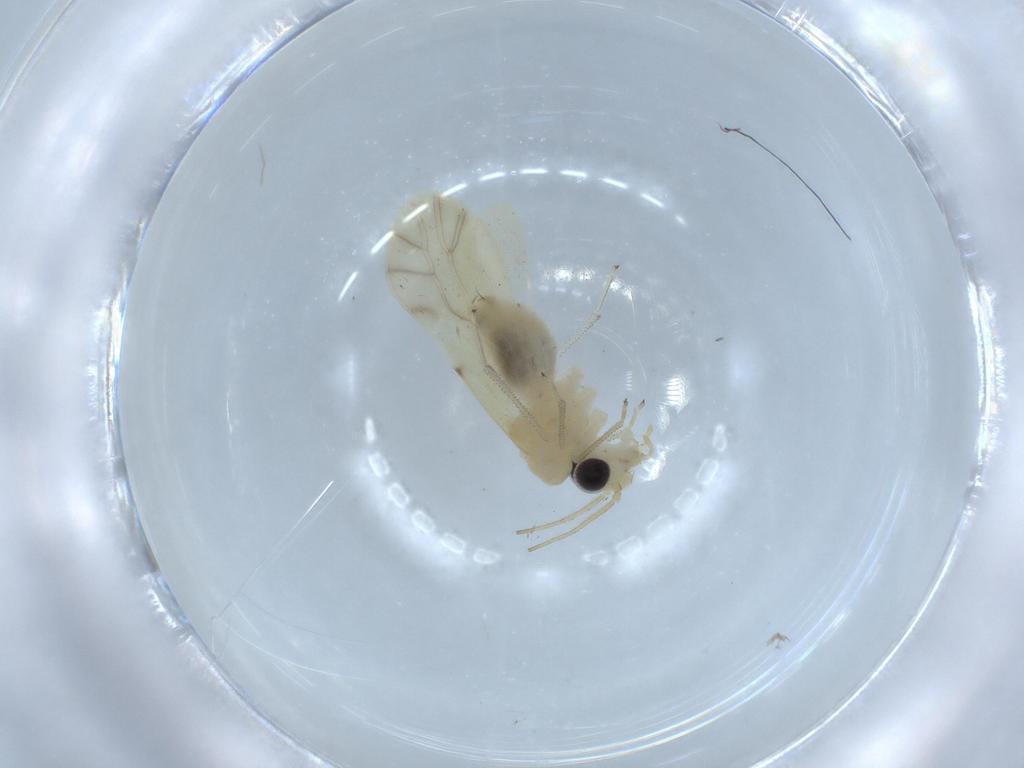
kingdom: Animalia
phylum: Arthropoda
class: Insecta
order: Psocodea
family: Caeciliusidae
